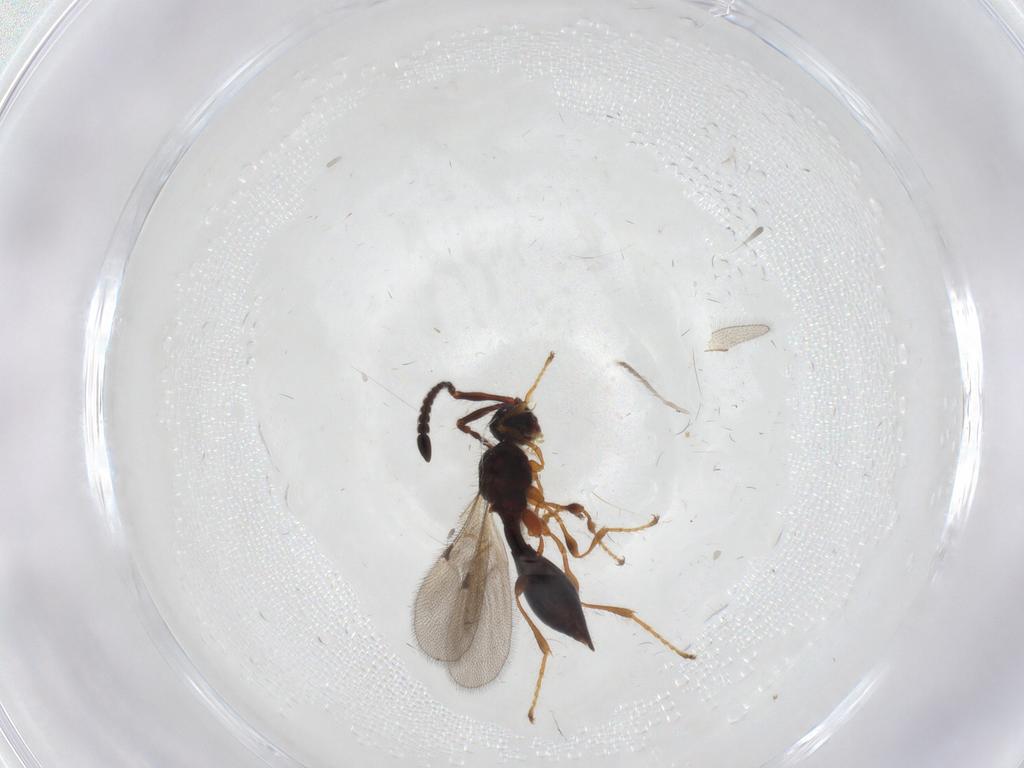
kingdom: Animalia
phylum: Arthropoda
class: Insecta
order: Hymenoptera
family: Diapriidae
